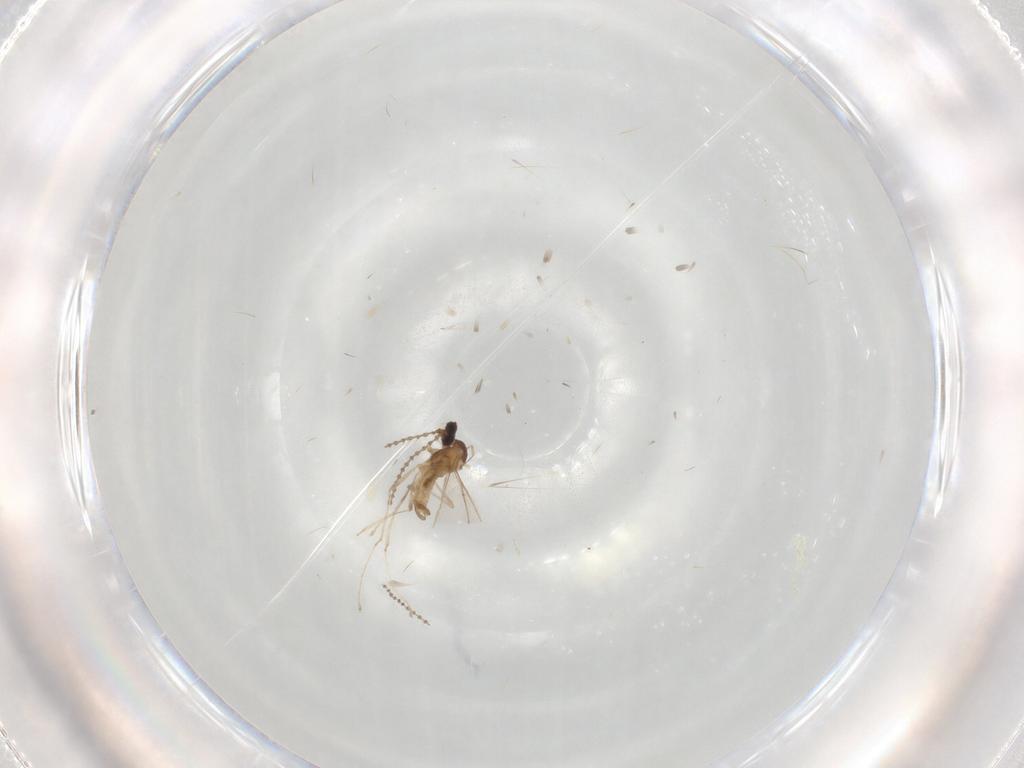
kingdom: Animalia
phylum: Arthropoda
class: Insecta
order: Diptera
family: Cecidomyiidae
